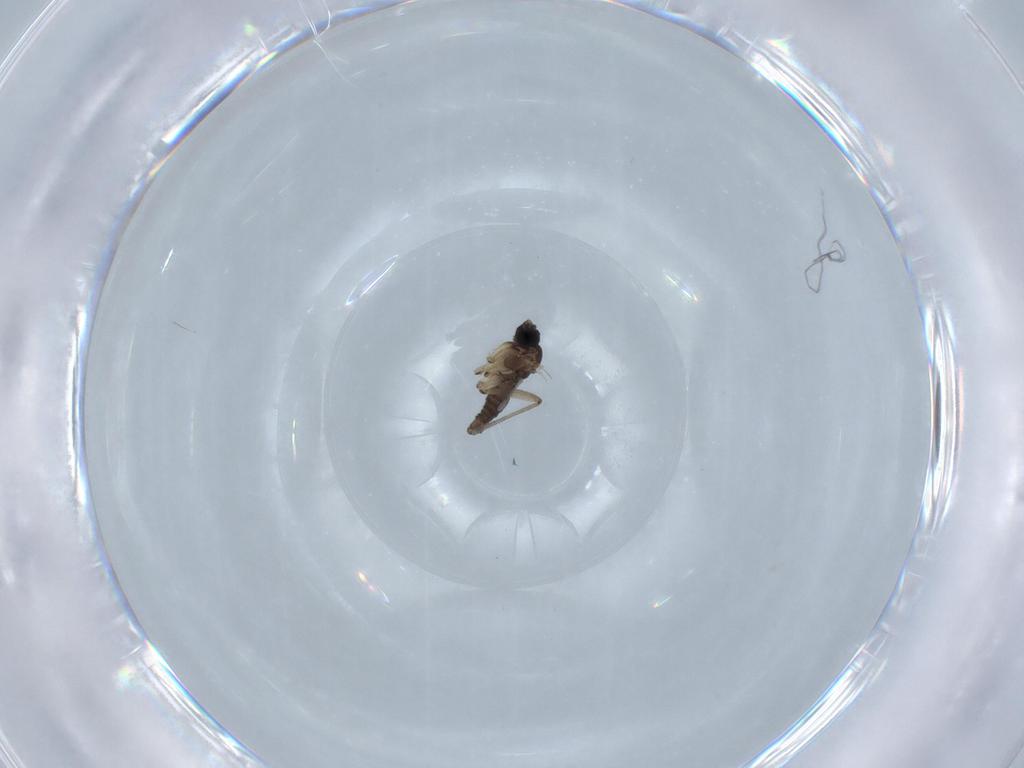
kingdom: Animalia
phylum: Arthropoda
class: Insecta
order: Diptera
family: Sciaridae
